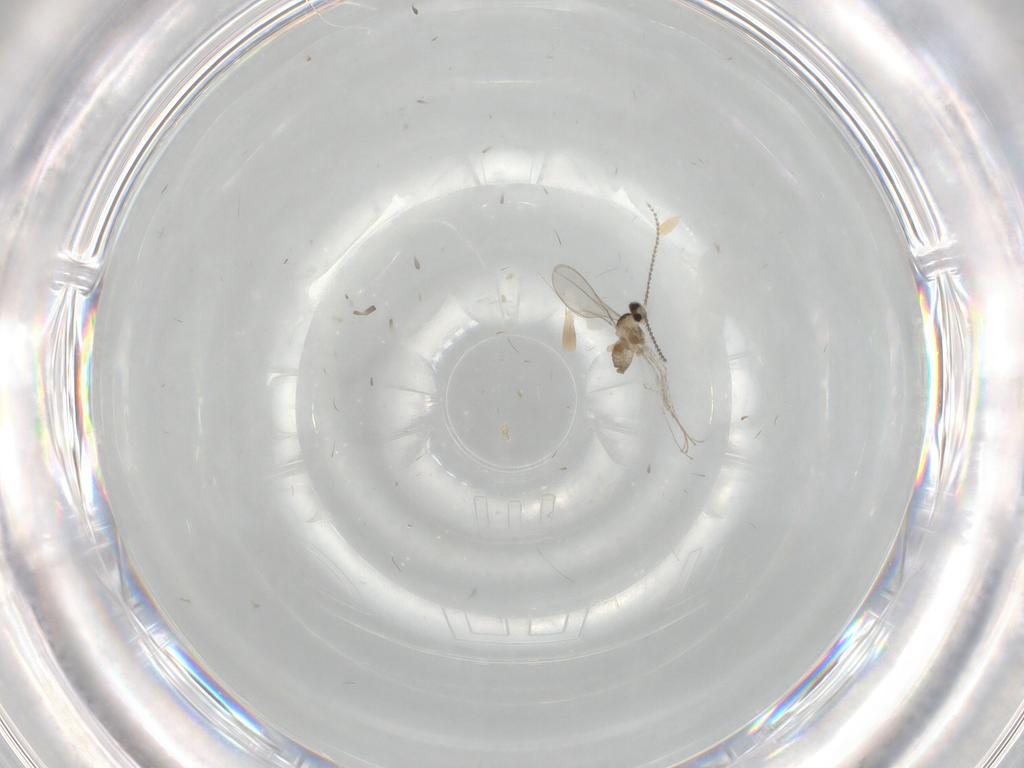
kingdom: Animalia
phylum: Arthropoda
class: Insecta
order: Diptera
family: Cecidomyiidae
